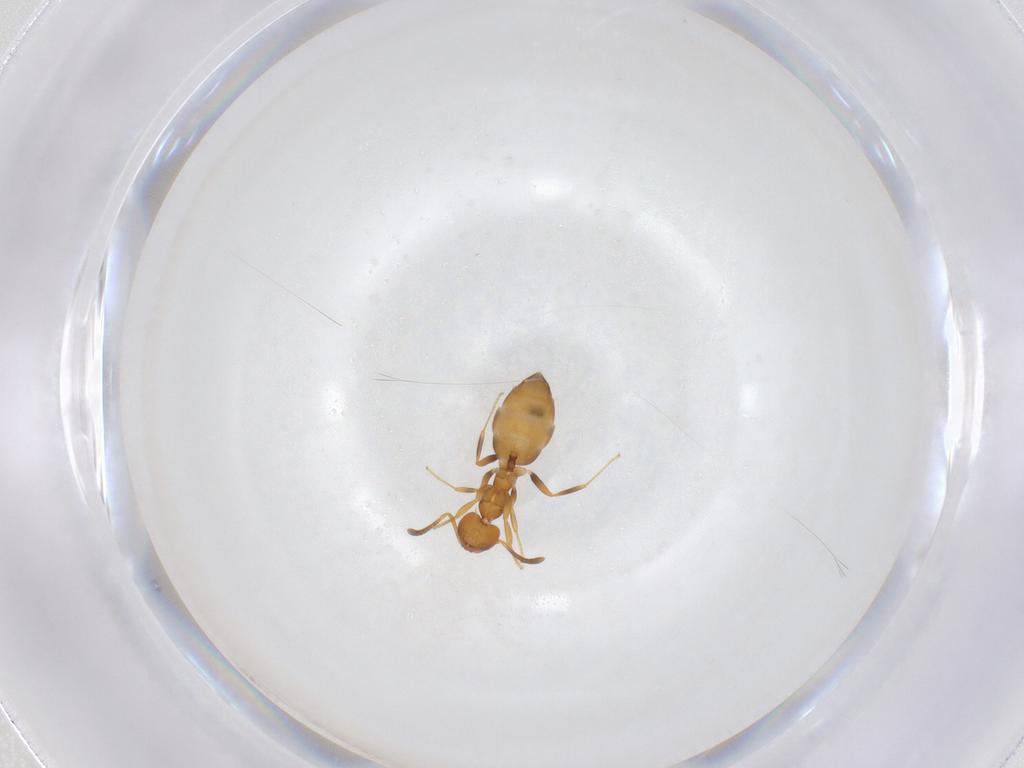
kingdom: Animalia
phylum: Arthropoda
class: Insecta
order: Hymenoptera
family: Formicidae
